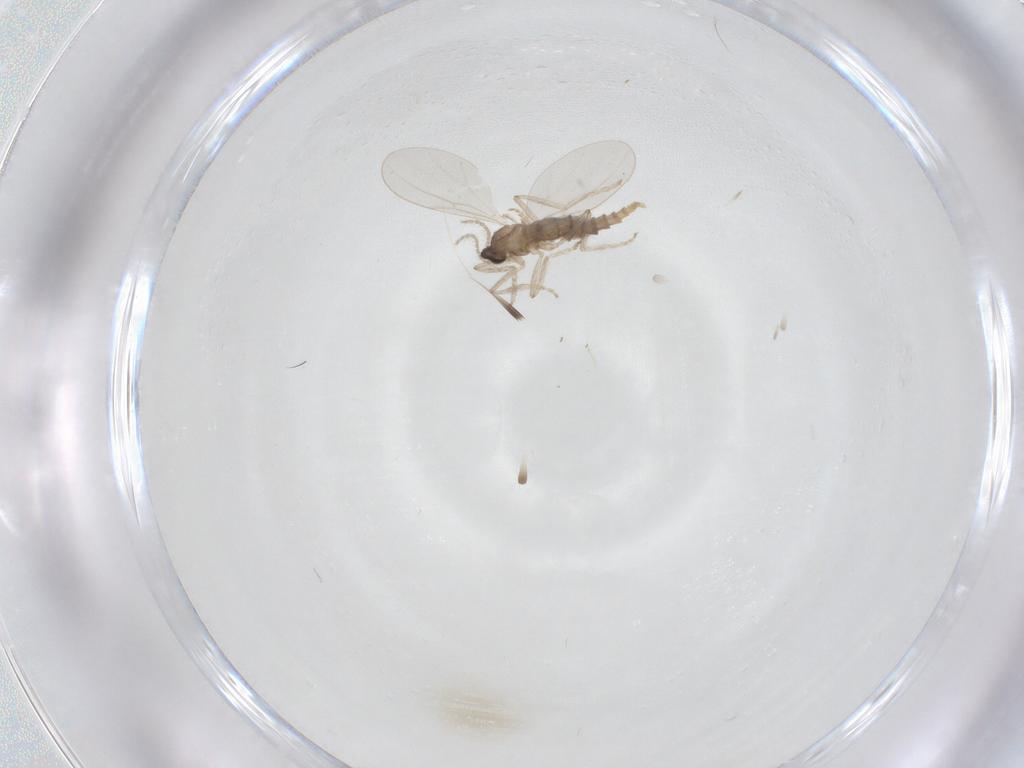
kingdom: Animalia
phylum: Arthropoda
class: Insecta
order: Diptera
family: Cecidomyiidae
